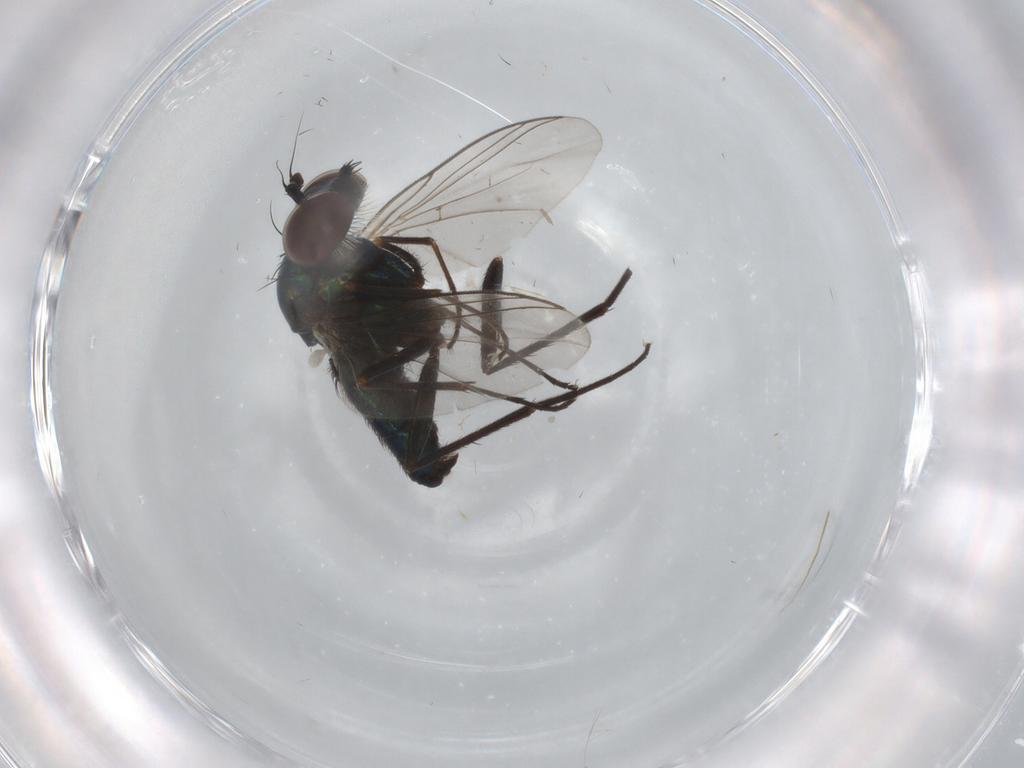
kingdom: Animalia
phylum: Arthropoda
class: Insecta
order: Diptera
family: Dolichopodidae
